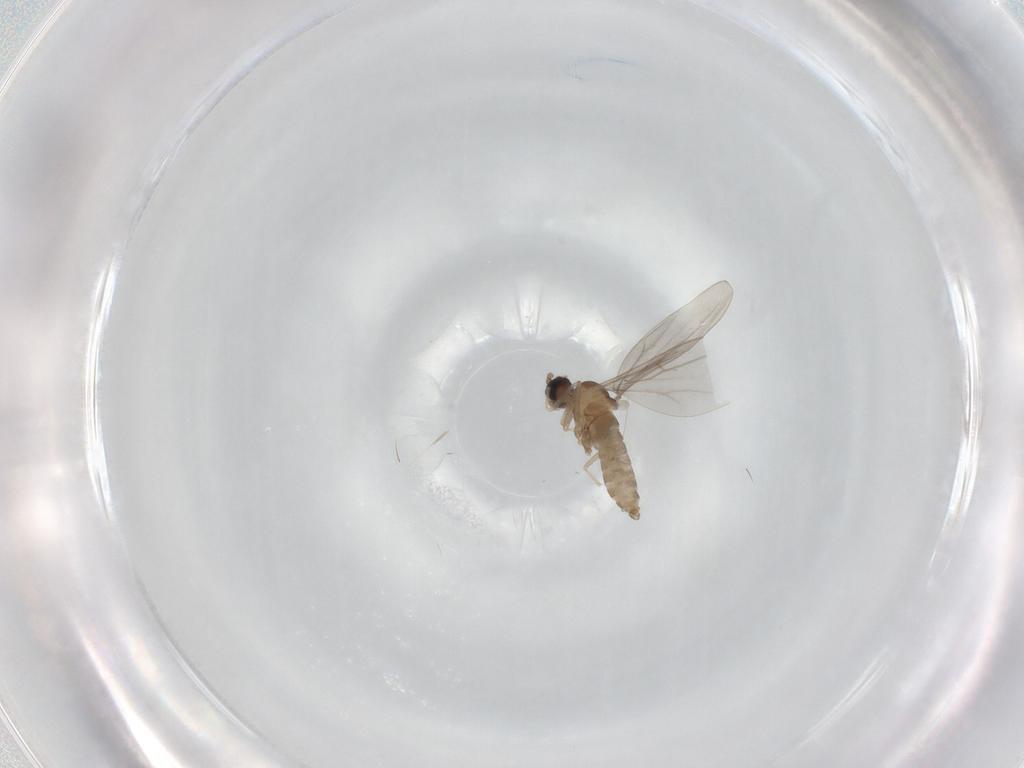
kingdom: Animalia
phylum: Arthropoda
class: Insecta
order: Diptera
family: Cecidomyiidae
